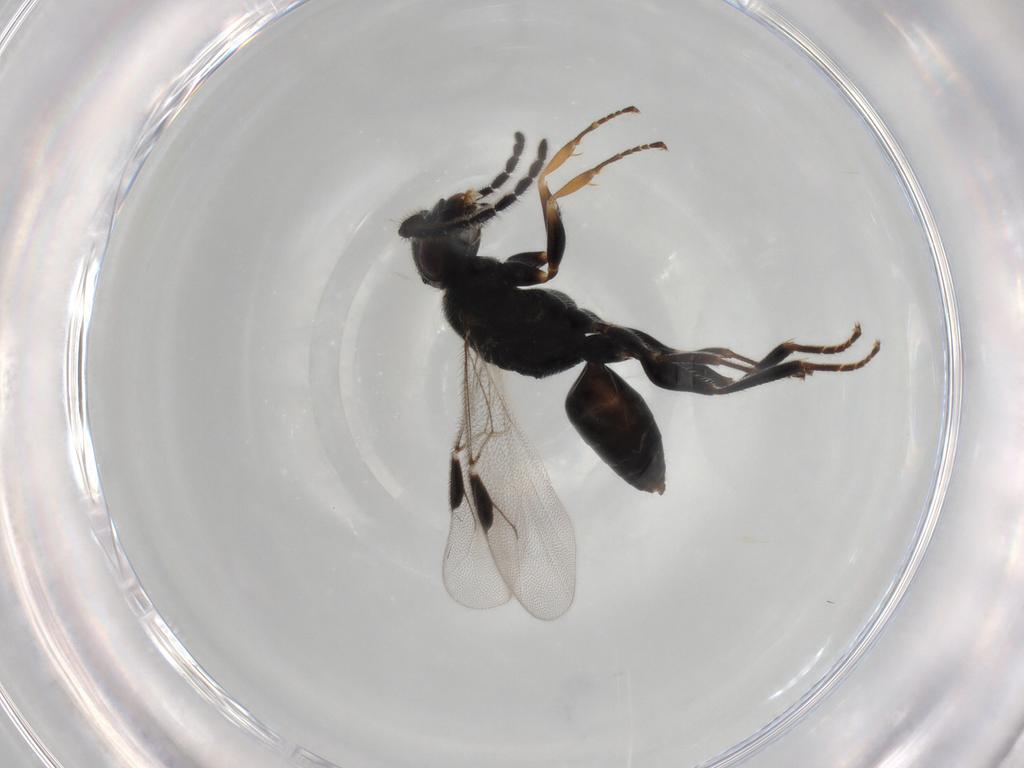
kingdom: Animalia
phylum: Arthropoda
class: Insecta
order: Hymenoptera
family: Dryinidae
